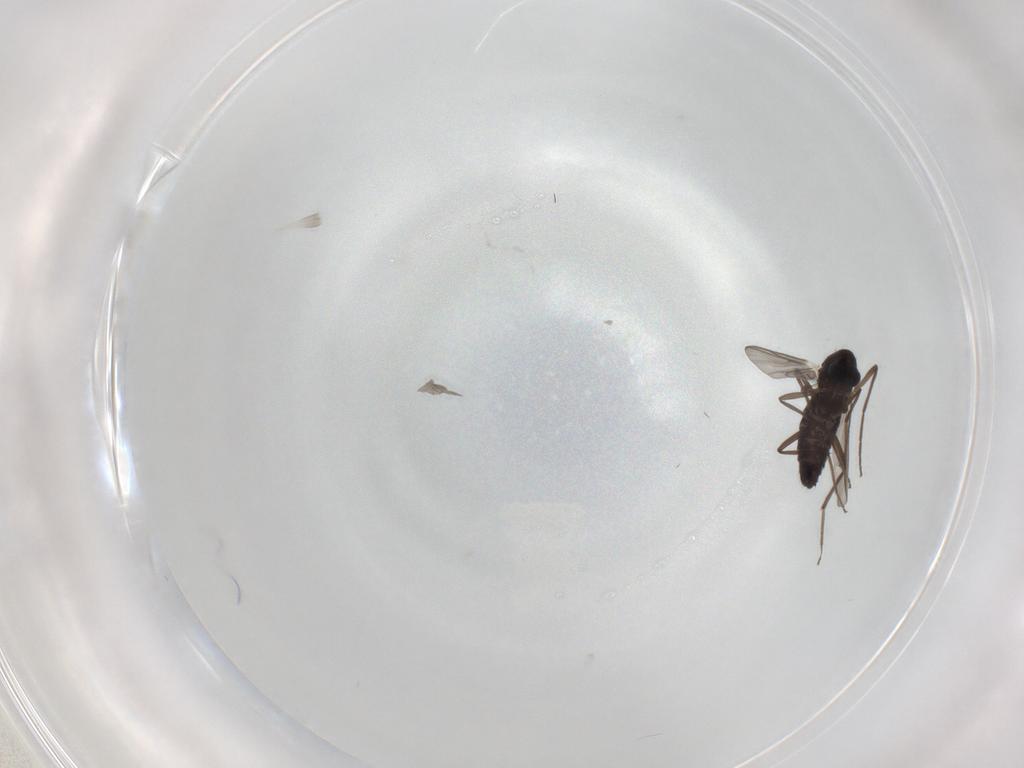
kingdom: Animalia
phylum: Arthropoda
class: Insecta
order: Diptera
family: Chironomidae
